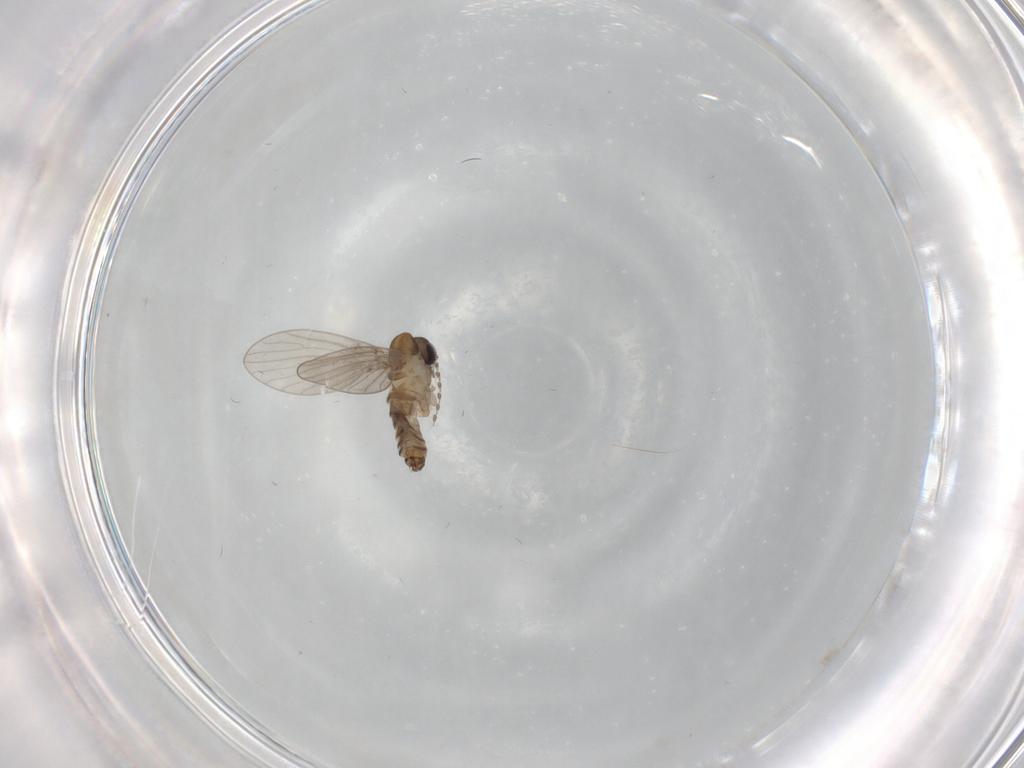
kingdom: Animalia
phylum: Arthropoda
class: Insecta
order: Diptera
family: Psychodidae
